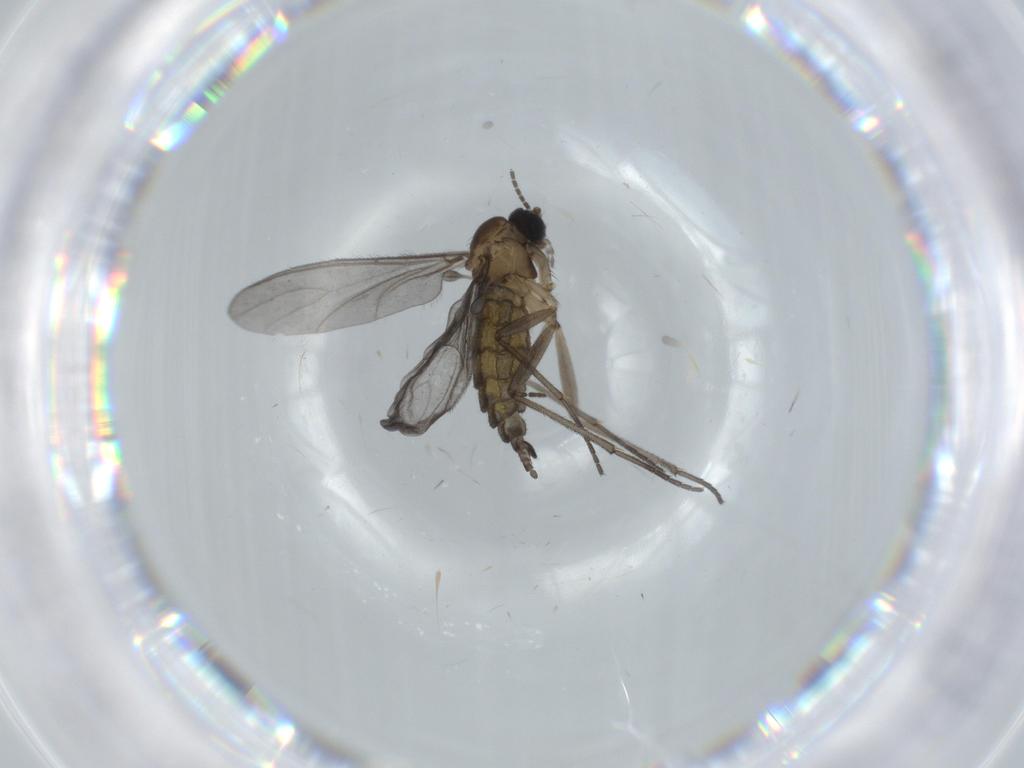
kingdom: Animalia
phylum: Arthropoda
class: Insecta
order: Diptera
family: Sciaridae
